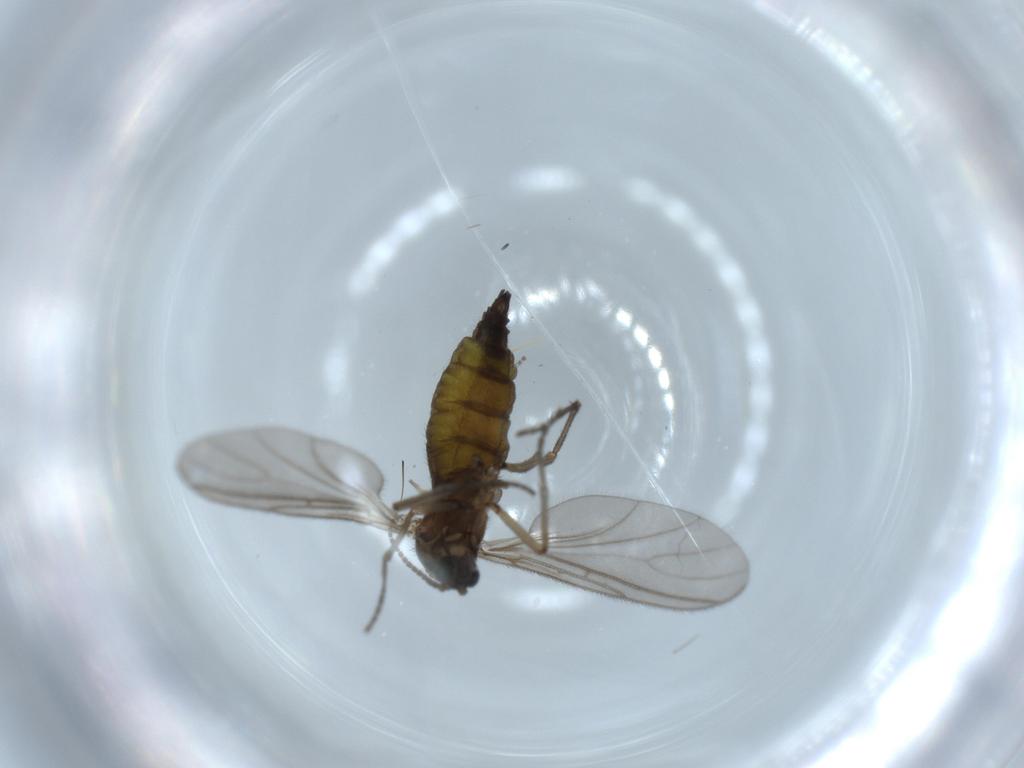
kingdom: Animalia
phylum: Arthropoda
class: Insecta
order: Diptera
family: Sciaridae
